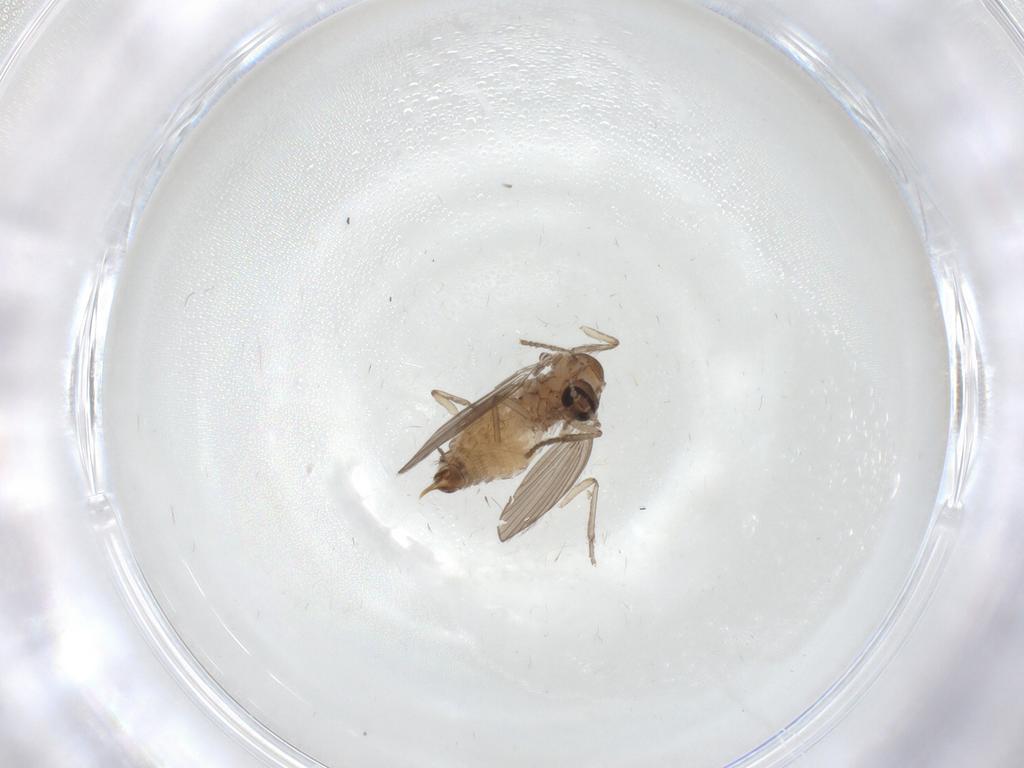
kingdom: Animalia
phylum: Arthropoda
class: Insecta
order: Diptera
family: Psychodidae
